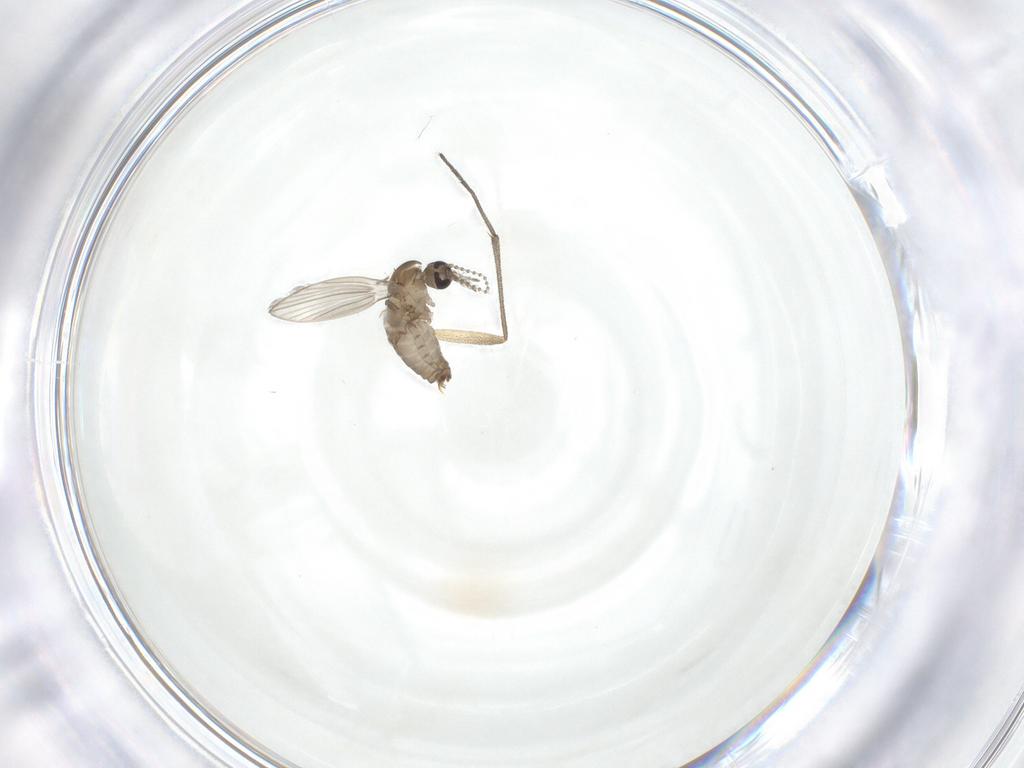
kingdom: Animalia
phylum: Arthropoda
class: Insecta
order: Diptera
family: Psychodidae
